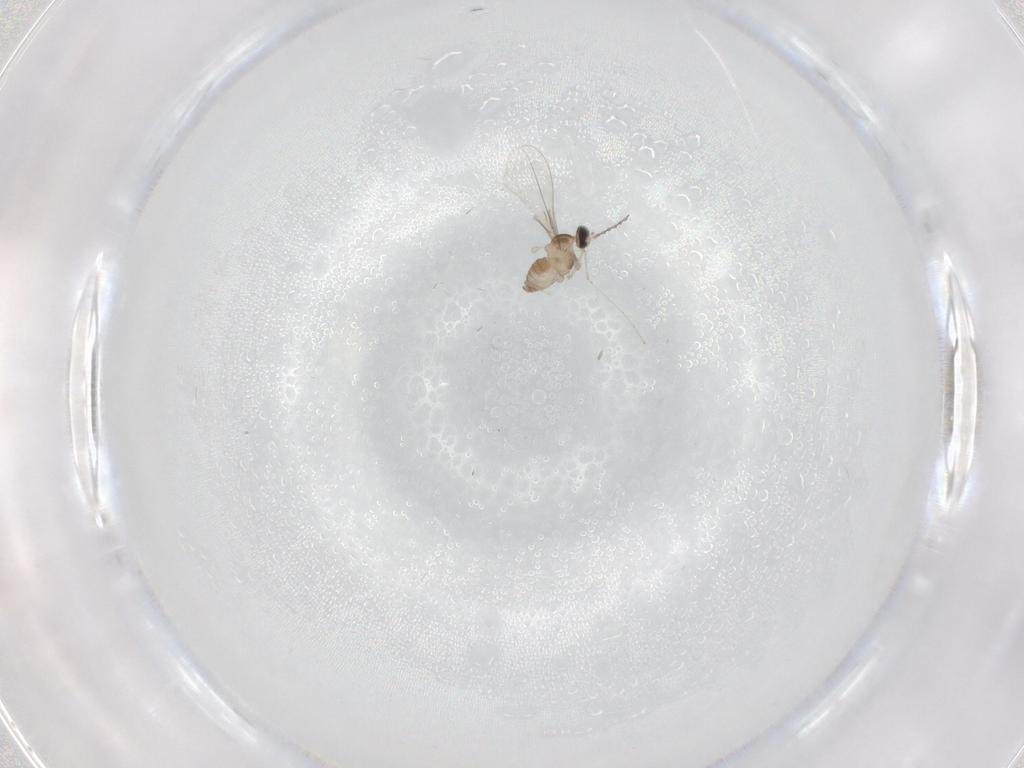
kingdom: Animalia
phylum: Arthropoda
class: Insecta
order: Diptera
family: Cecidomyiidae
